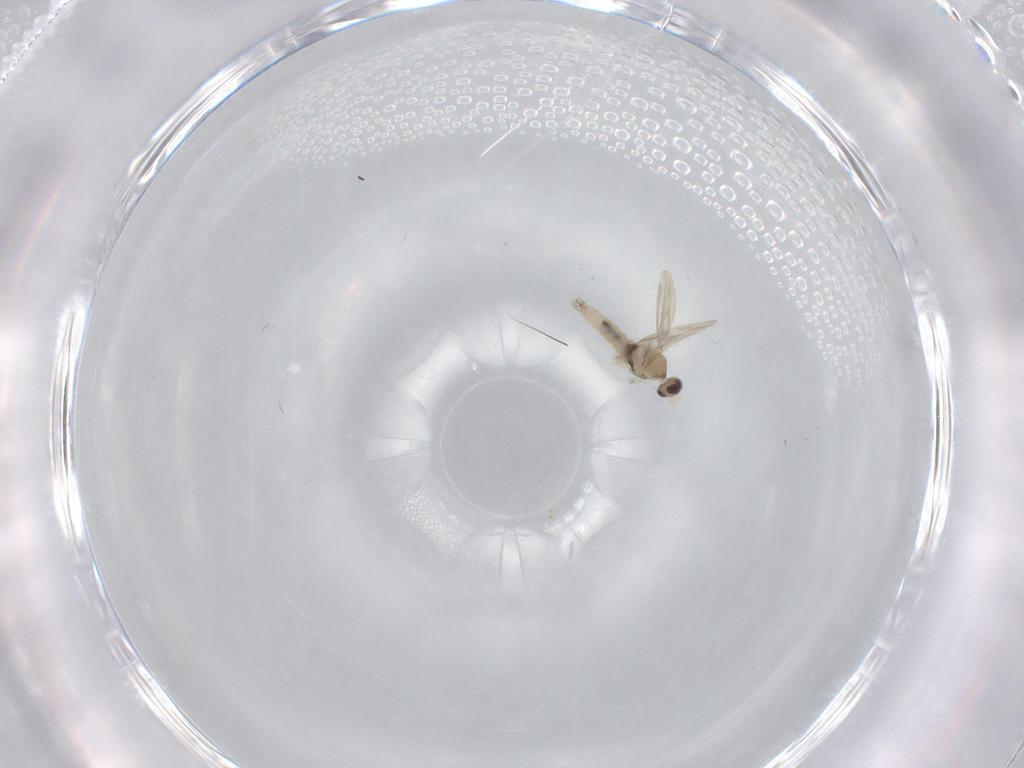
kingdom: Animalia
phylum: Arthropoda
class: Insecta
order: Diptera
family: Cecidomyiidae
